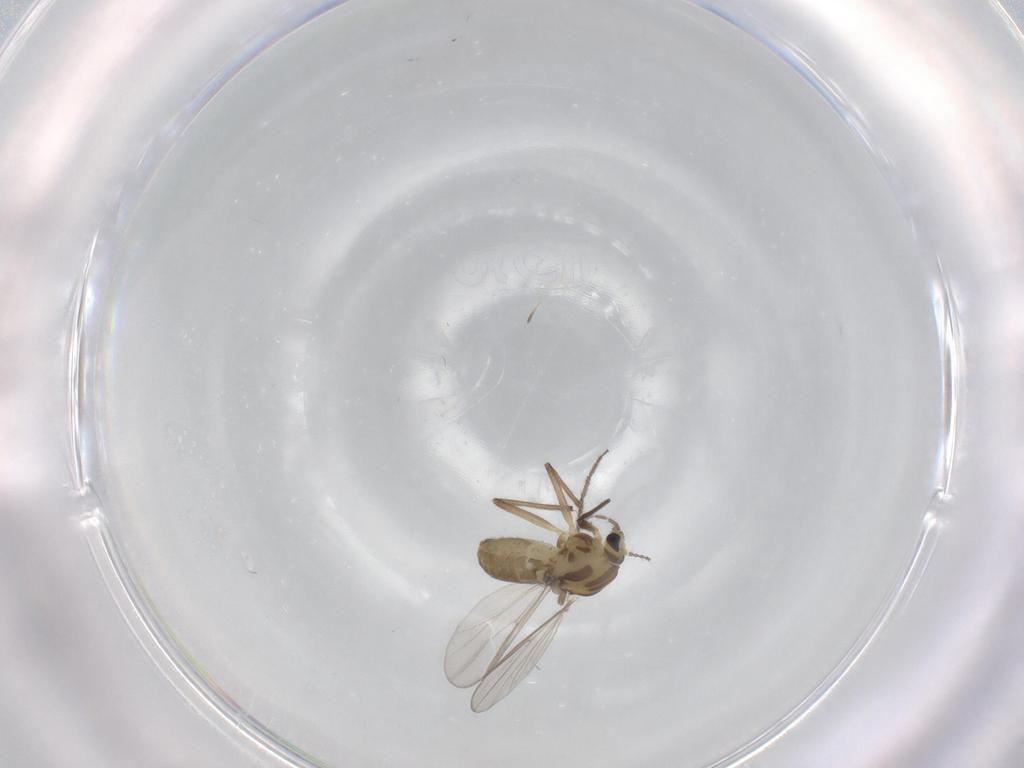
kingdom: Animalia
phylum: Arthropoda
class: Insecta
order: Diptera
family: Chironomidae
